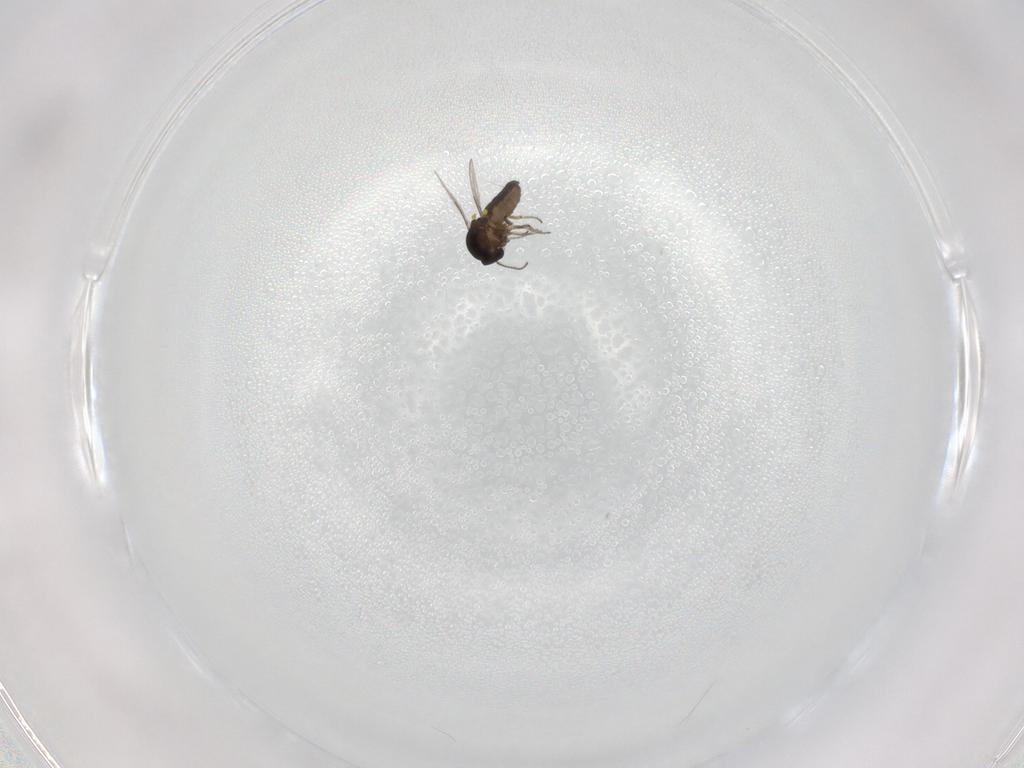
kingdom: Animalia
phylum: Arthropoda
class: Insecta
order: Diptera
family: Ceratopogonidae
